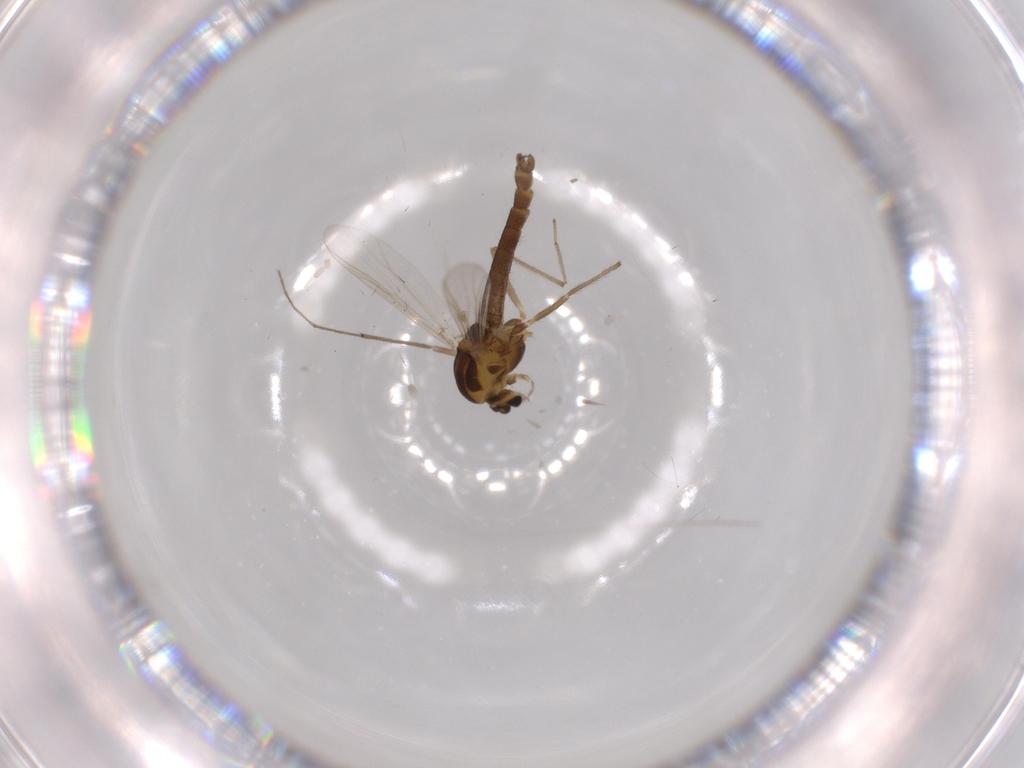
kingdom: Animalia
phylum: Arthropoda
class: Insecta
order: Diptera
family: Chironomidae
